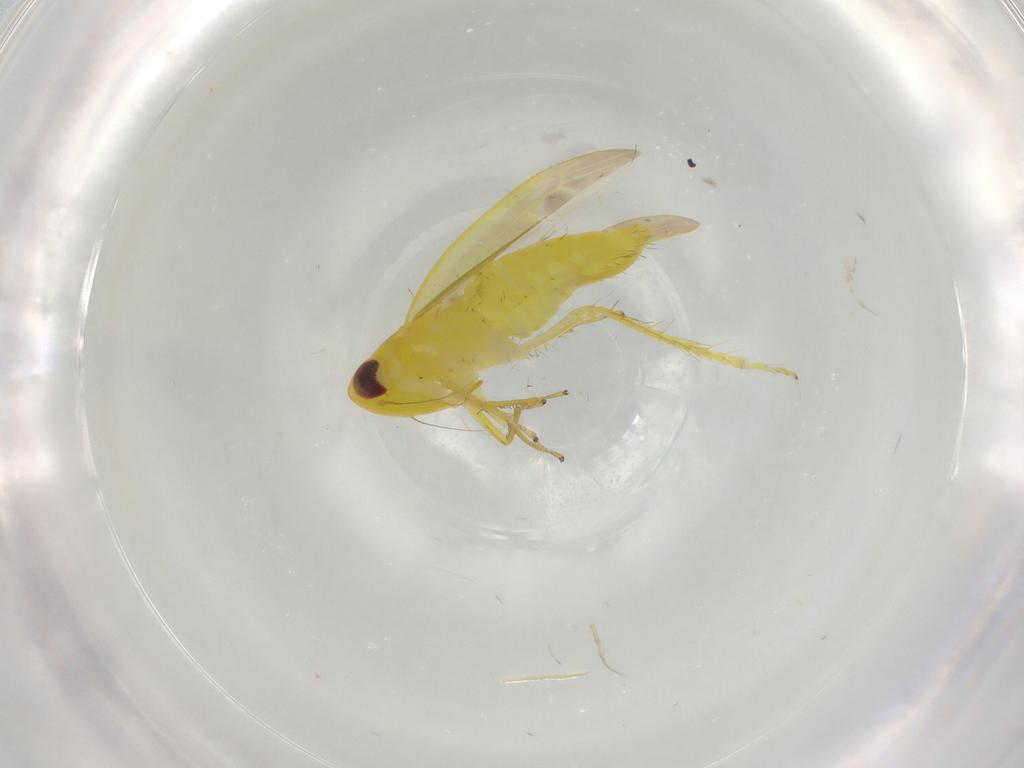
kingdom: Animalia
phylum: Arthropoda
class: Insecta
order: Hemiptera
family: Cicadellidae
